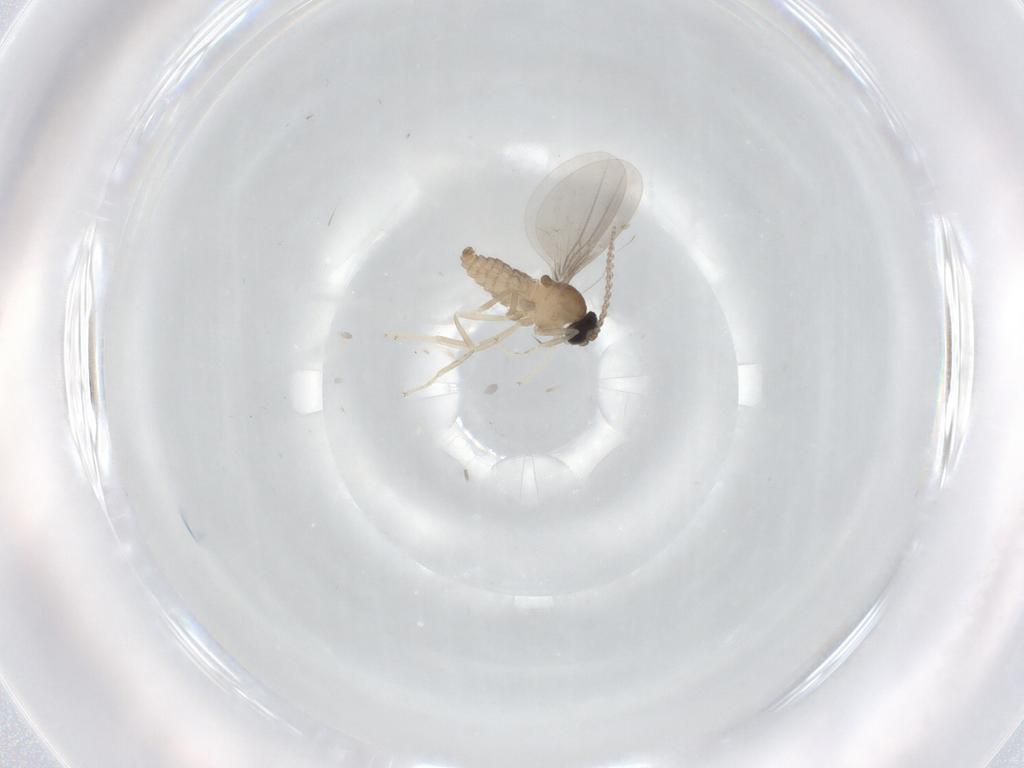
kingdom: Animalia
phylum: Arthropoda
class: Insecta
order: Diptera
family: Cecidomyiidae
